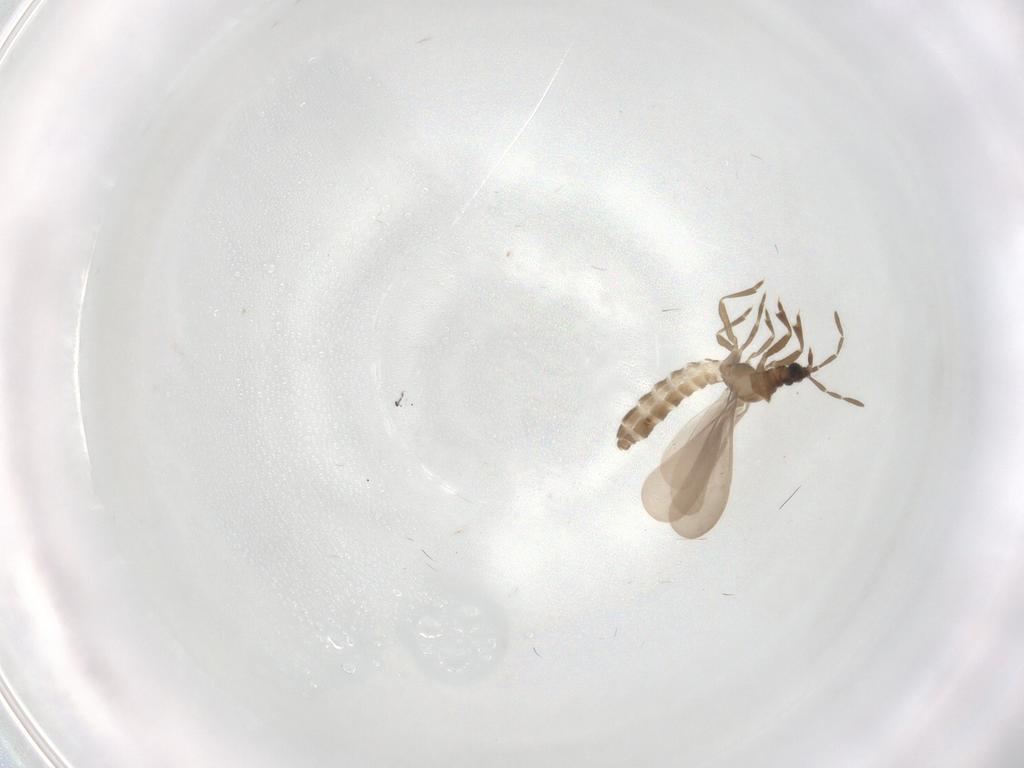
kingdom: Animalia
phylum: Arthropoda
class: Insecta
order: Hemiptera
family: Enicocephalidae
